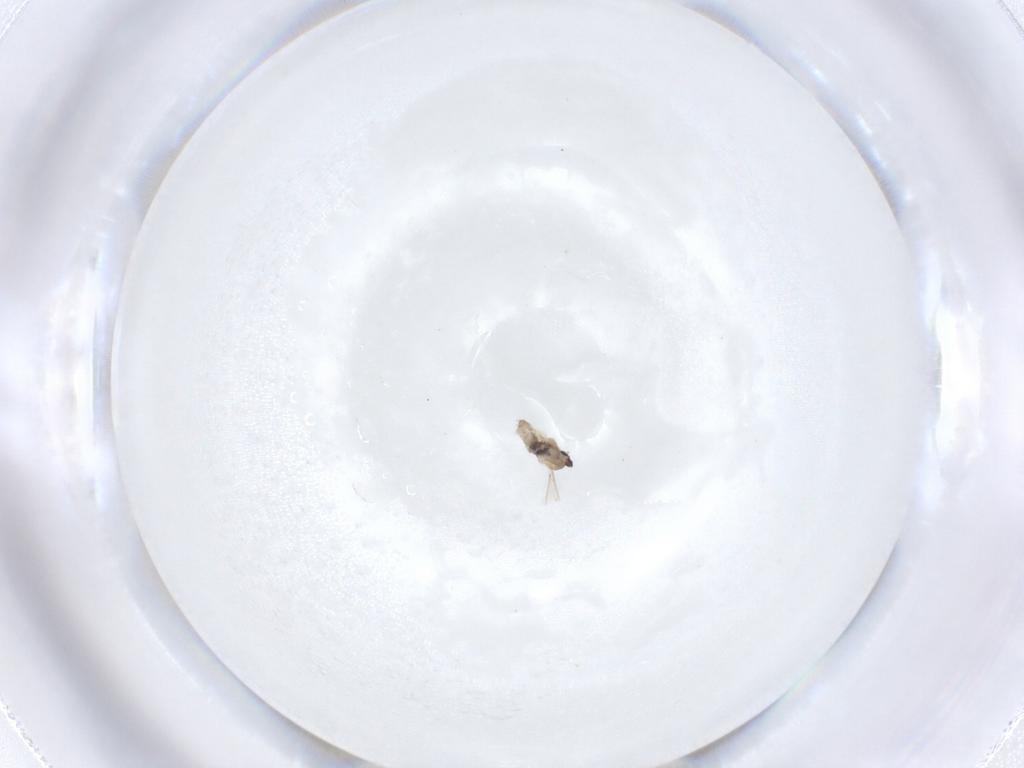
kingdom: Animalia
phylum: Arthropoda
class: Insecta
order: Diptera
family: Cecidomyiidae
